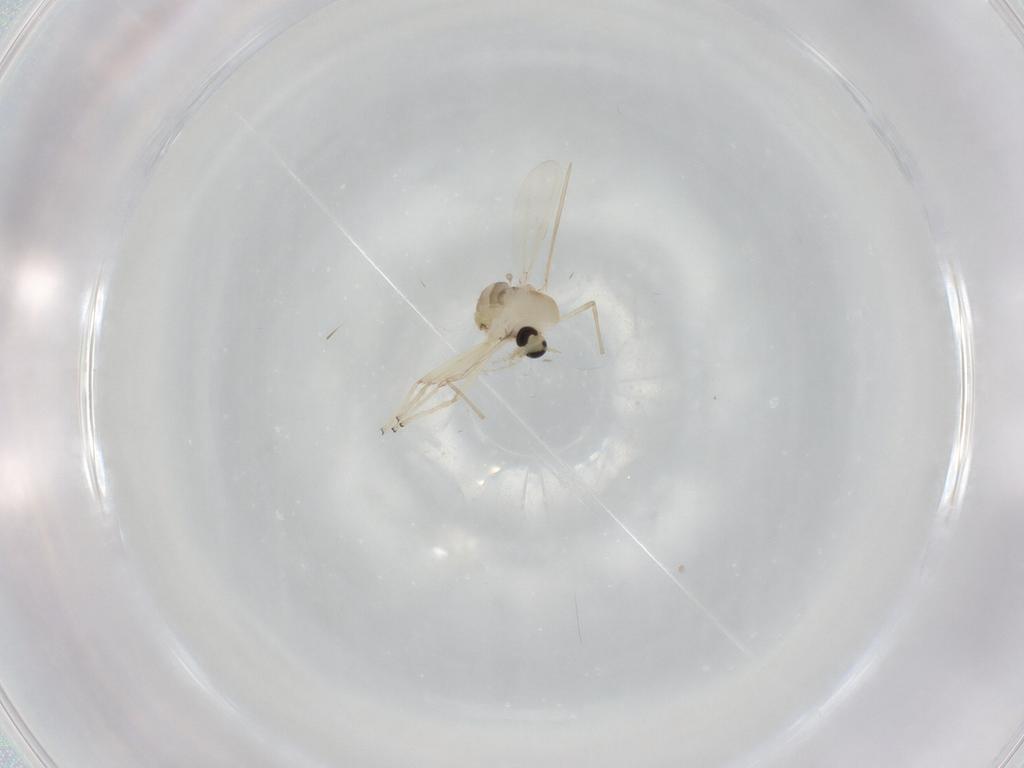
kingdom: Animalia
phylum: Arthropoda
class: Insecta
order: Diptera
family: Chironomidae
